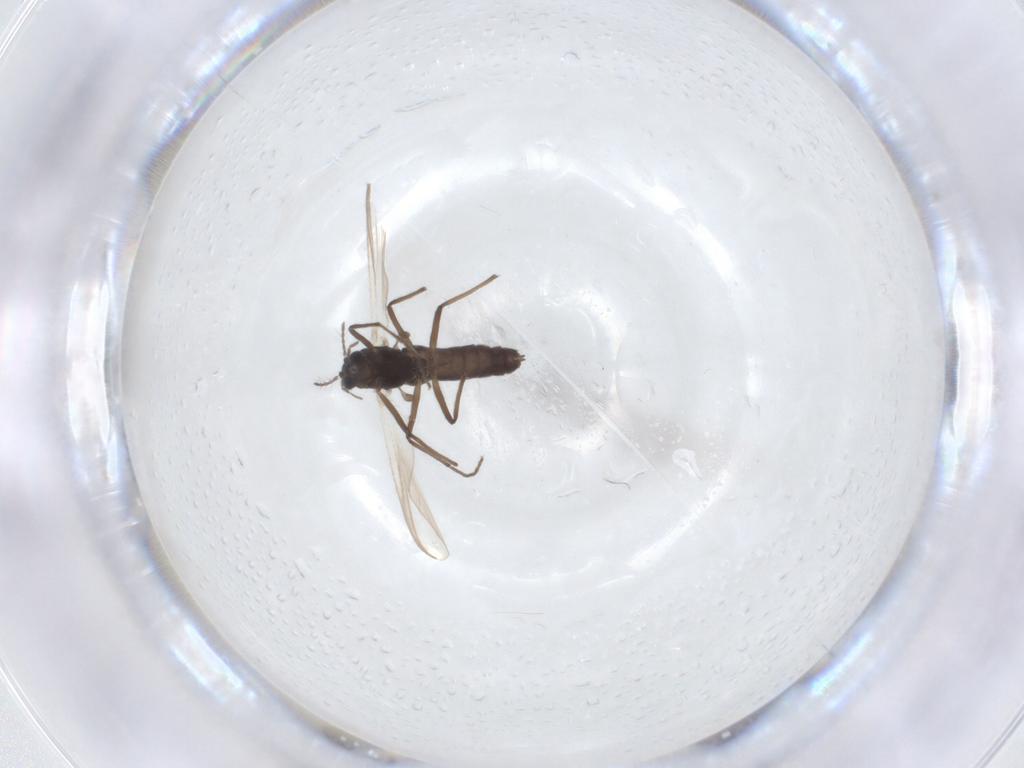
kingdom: Animalia
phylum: Arthropoda
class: Insecta
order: Diptera
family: Chironomidae
